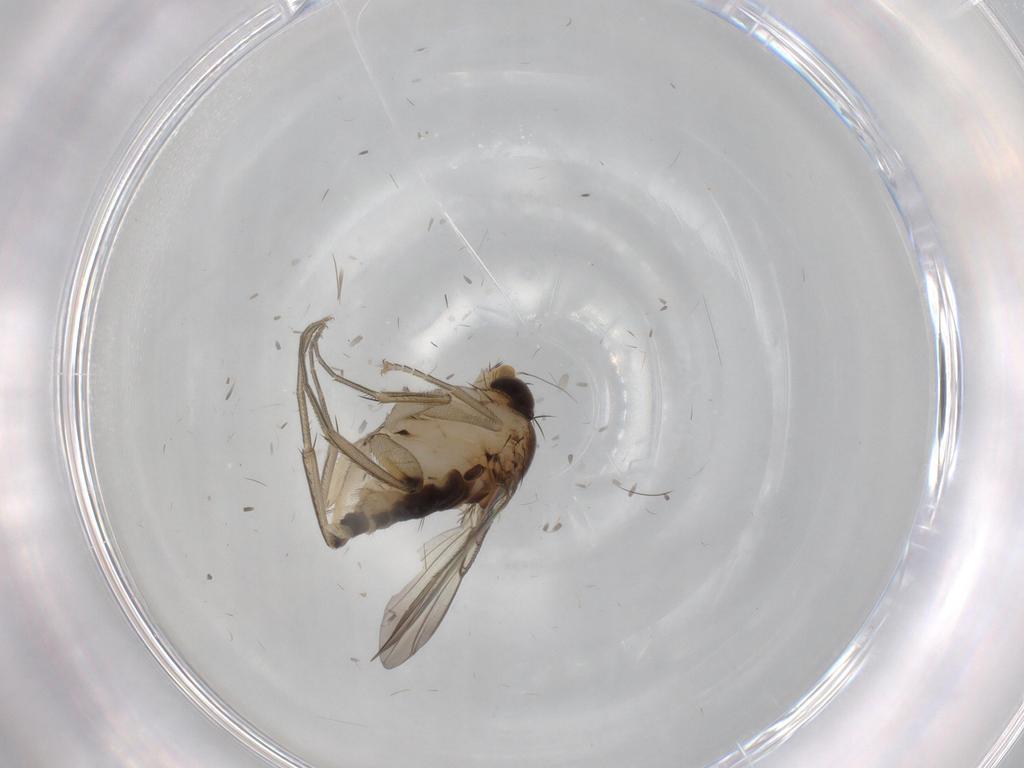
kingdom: Animalia
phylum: Arthropoda
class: Insecta
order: Diptera
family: Phoridae
